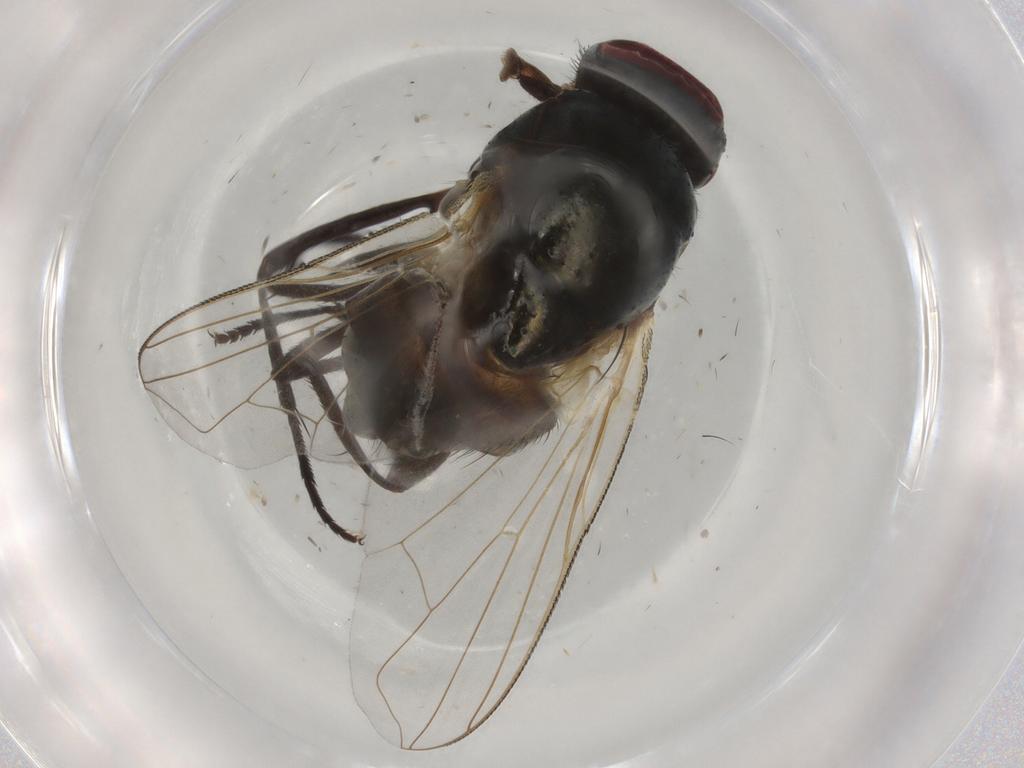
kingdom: Animalia
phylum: Arthropoda
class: Insecta
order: Diptera
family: Muscidae
